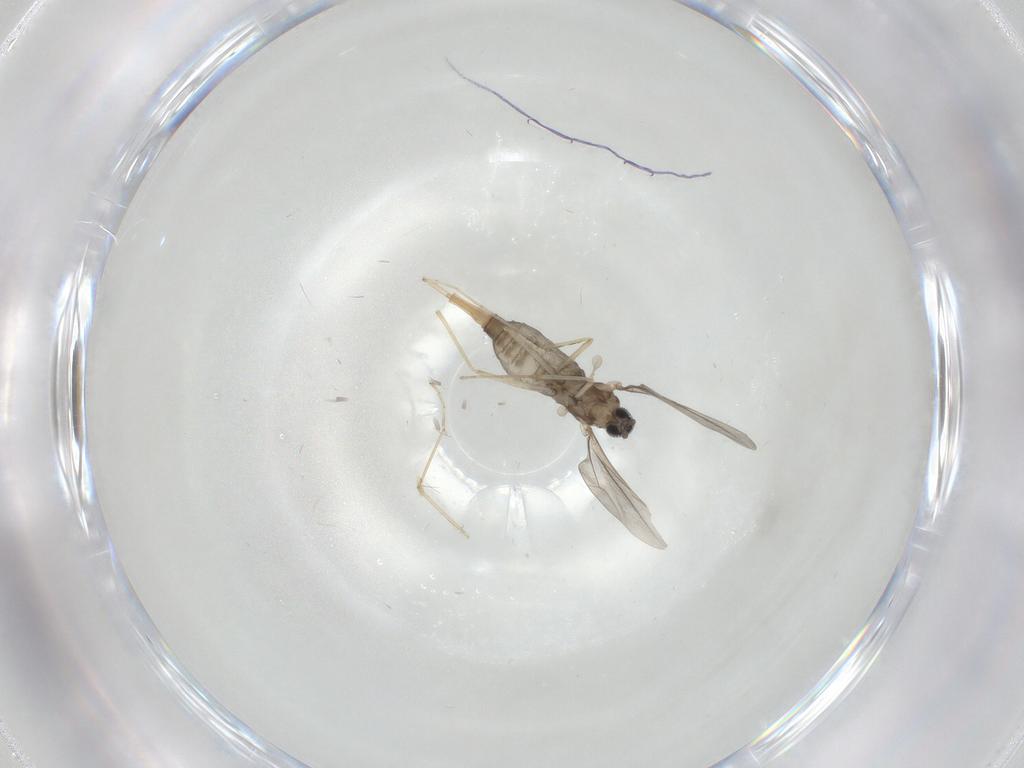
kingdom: Animalia
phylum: Arthropoda
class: Insecta
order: Diptera
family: Cecidomyiidae
